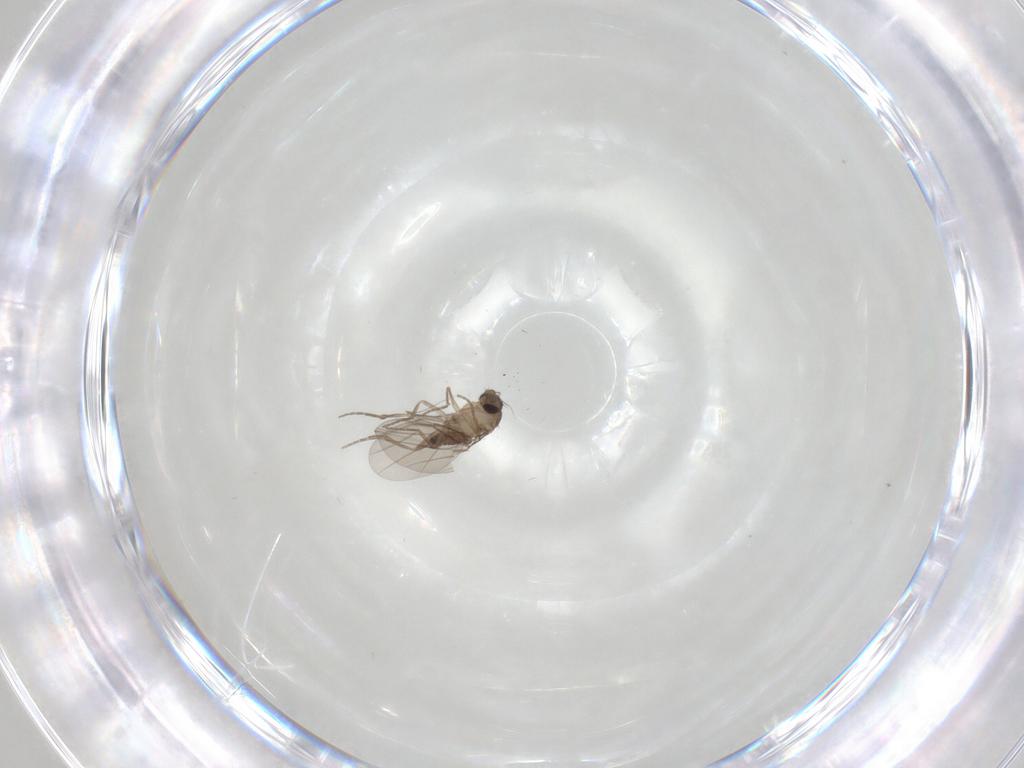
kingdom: Animalia
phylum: Arthropoda
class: Insecta
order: Diptera
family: Phoridae
